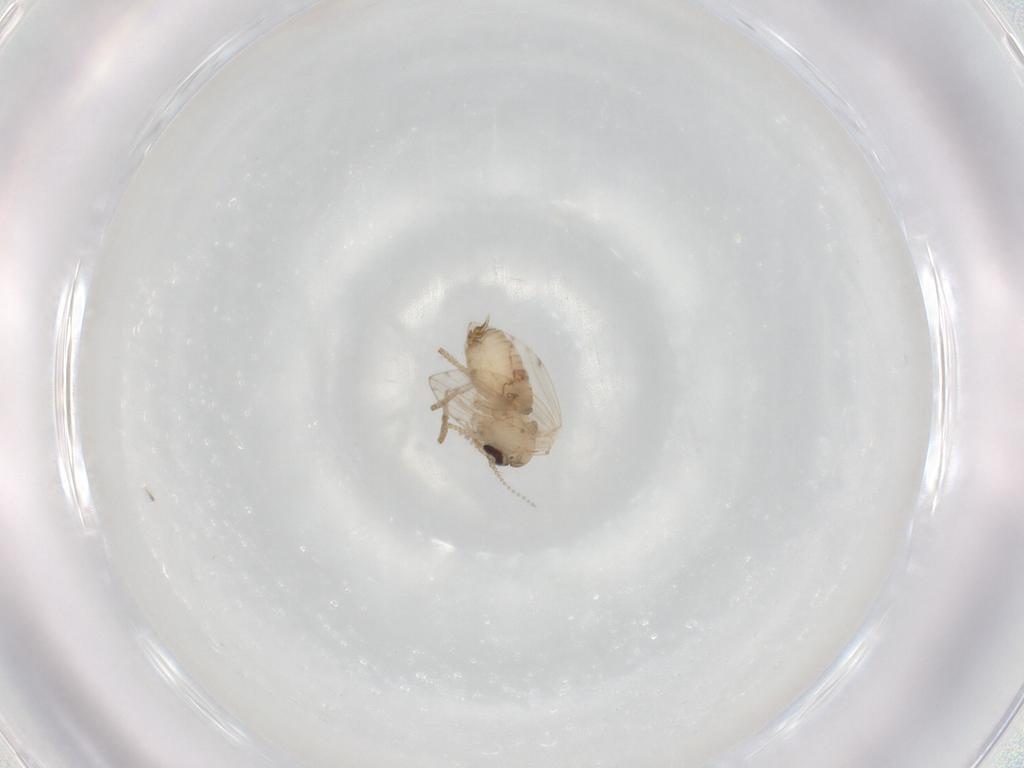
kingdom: Animalia
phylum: Arthropoda
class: Insecta
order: Diptera
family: Psychodidae
